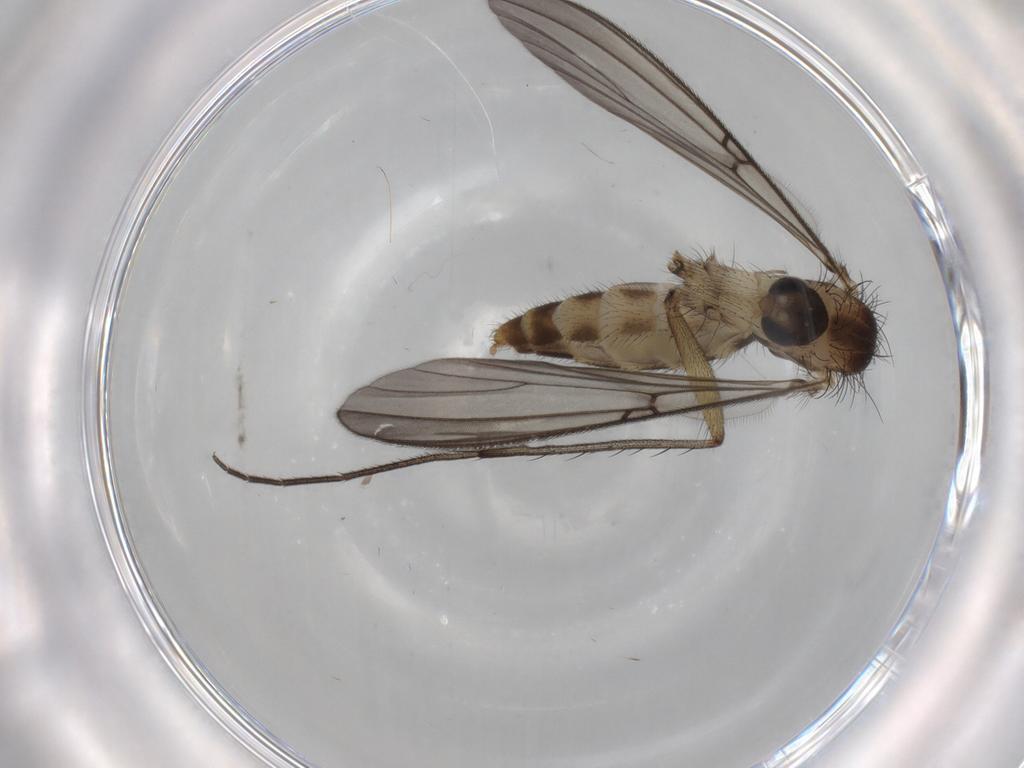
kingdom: Animalia
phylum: Arthropoda
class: Insecta
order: Diptera
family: Mycetophilidae
